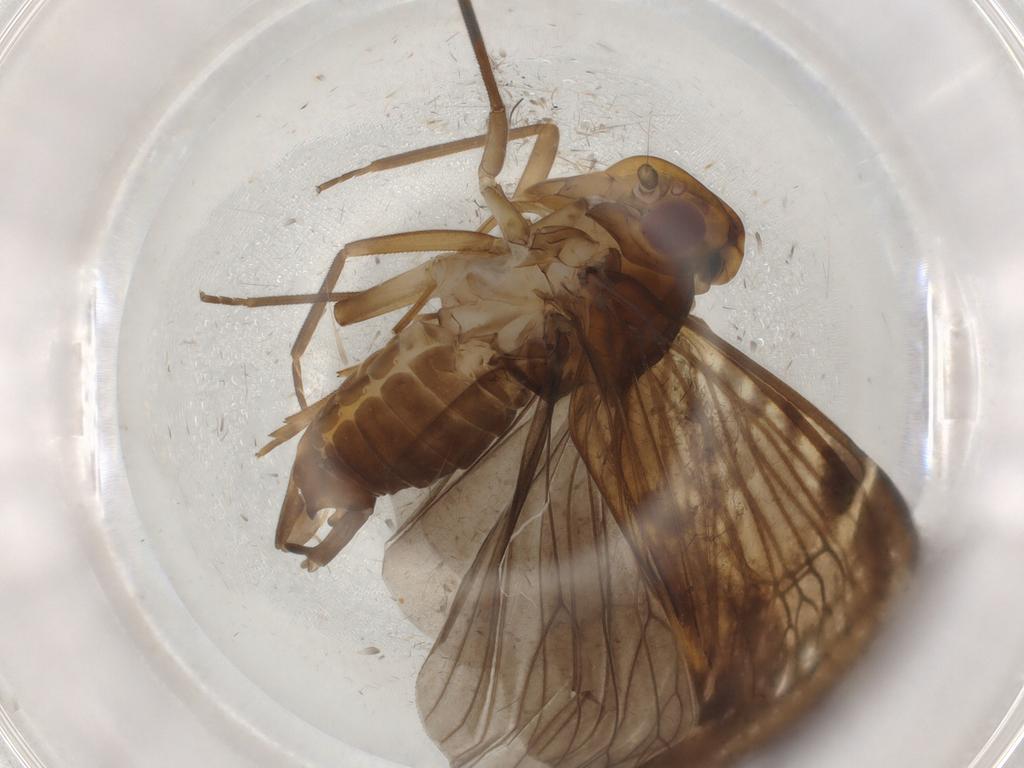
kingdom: Animalia
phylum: Arthropoda
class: Insecta
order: Hemiptera
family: Cicadellidae
